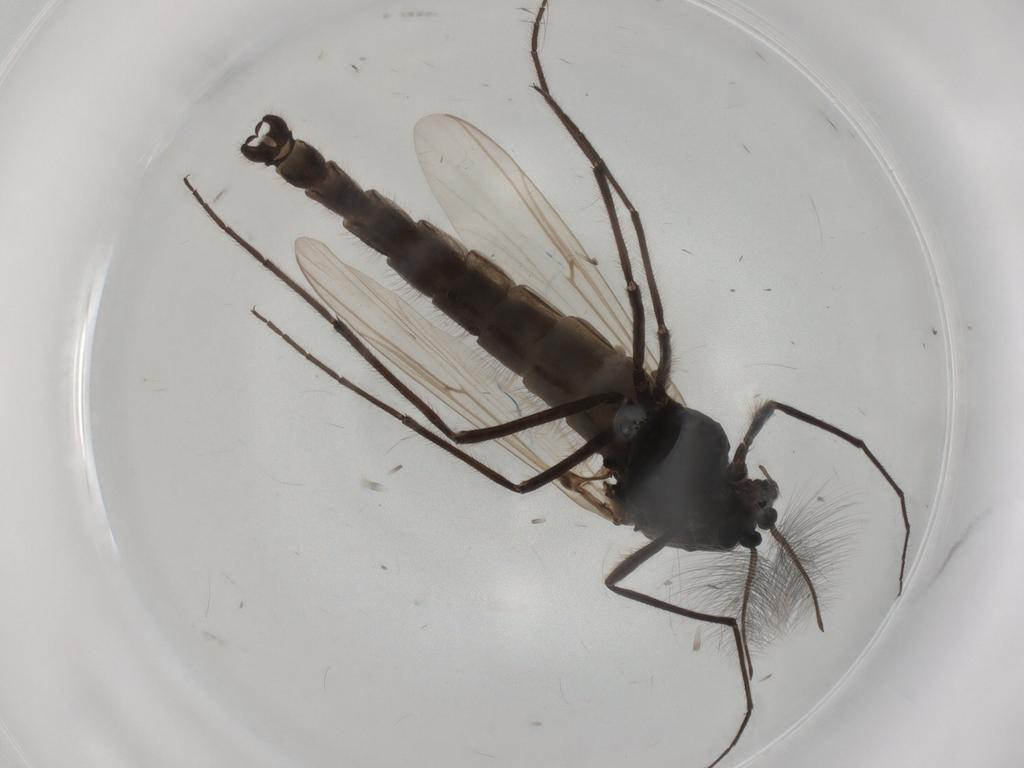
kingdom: Animalia
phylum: Arthropoda
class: Insecta
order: Diptera
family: Chironomidae
